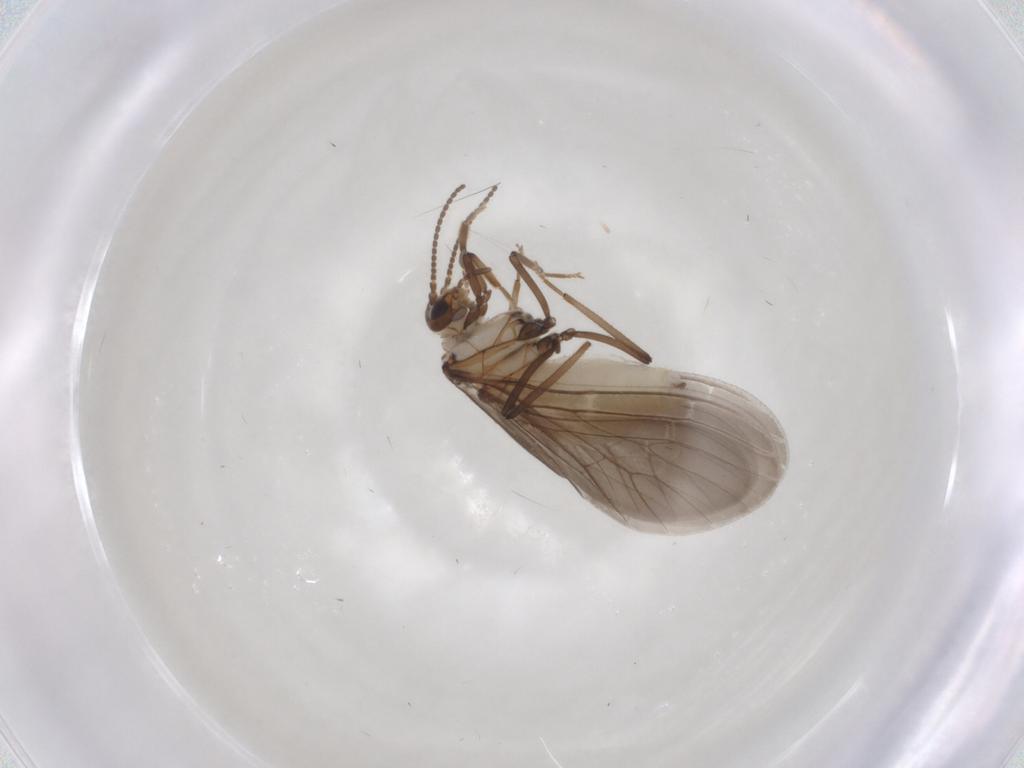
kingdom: Animalia
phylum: Arthropoda
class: Insecta
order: Neuroptera
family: Coniopterygidae
